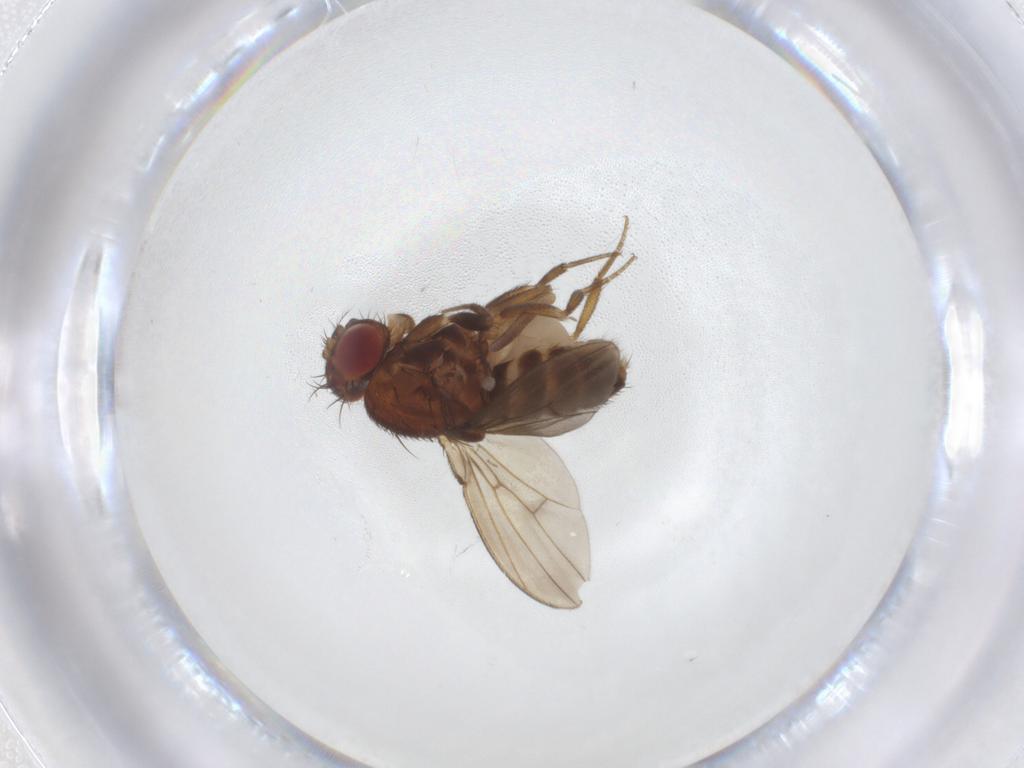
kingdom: Animalia
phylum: Arthropoda
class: Insecta
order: Diptera
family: Sphaeroceridae
